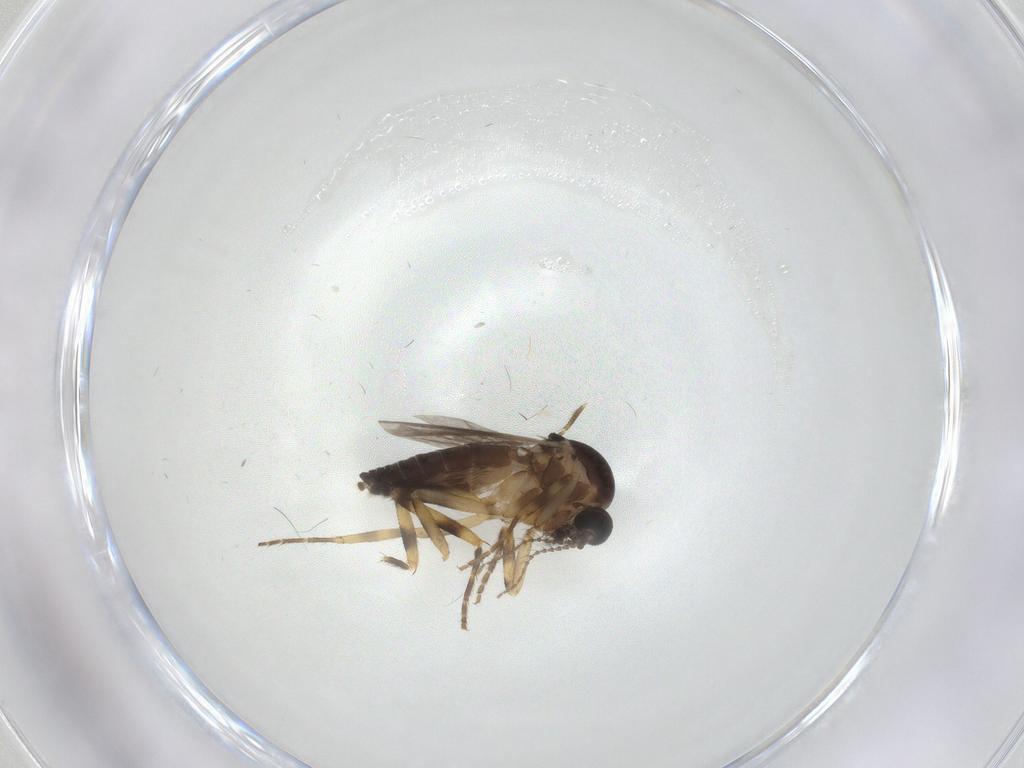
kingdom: Animalia
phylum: Arthropoda
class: Insecta
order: Diptera
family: Ceratopogonidae
